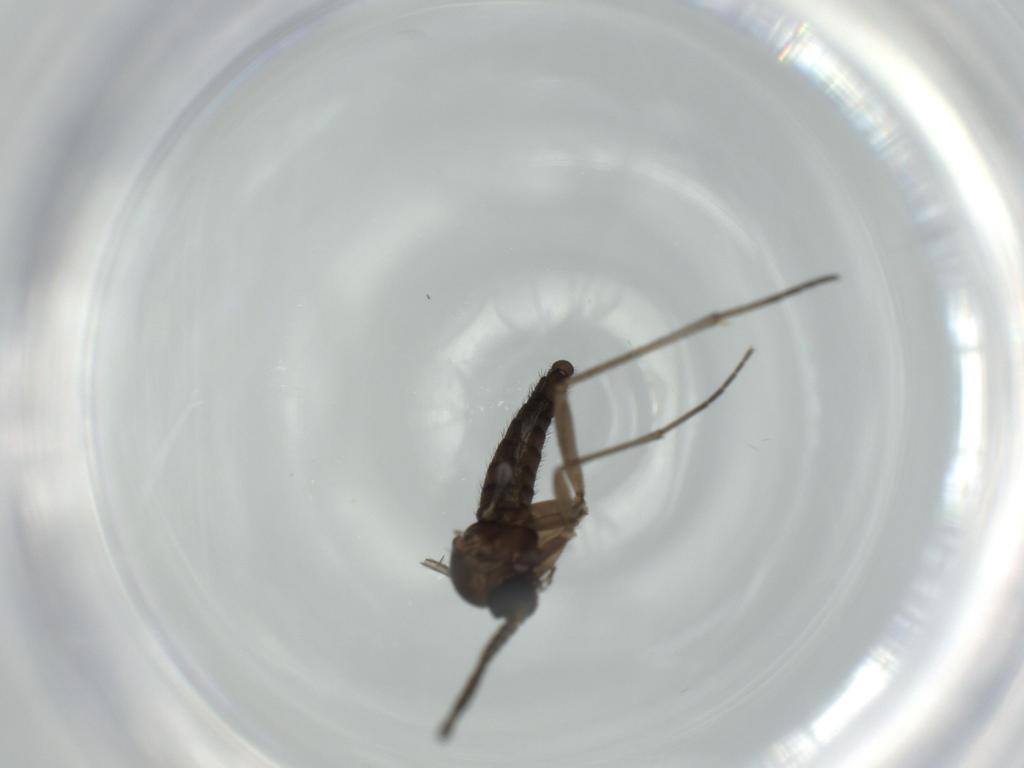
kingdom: Animalia
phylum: Arthropoda
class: Insecta
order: Diptera
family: Sciaridae
